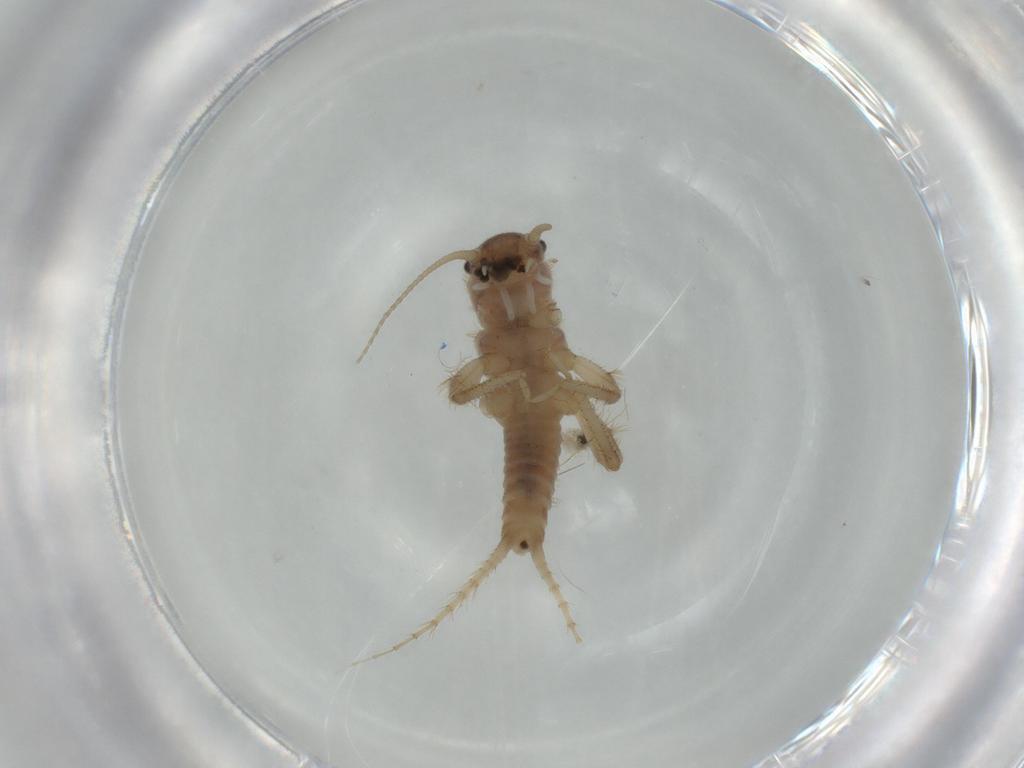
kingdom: Animalia
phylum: Arthropoda
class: Insecta
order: Plecoptera
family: Nemouridae
